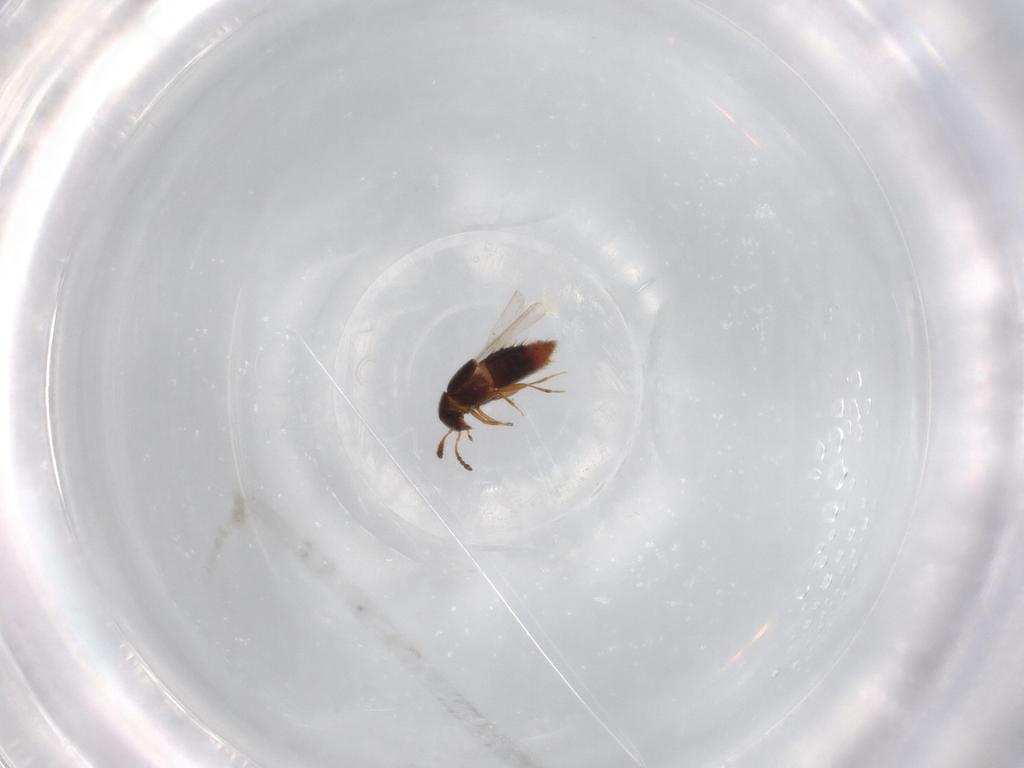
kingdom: Animalia
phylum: Arthropoda
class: Insecta
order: Coleoptera
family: Staphylinidae
